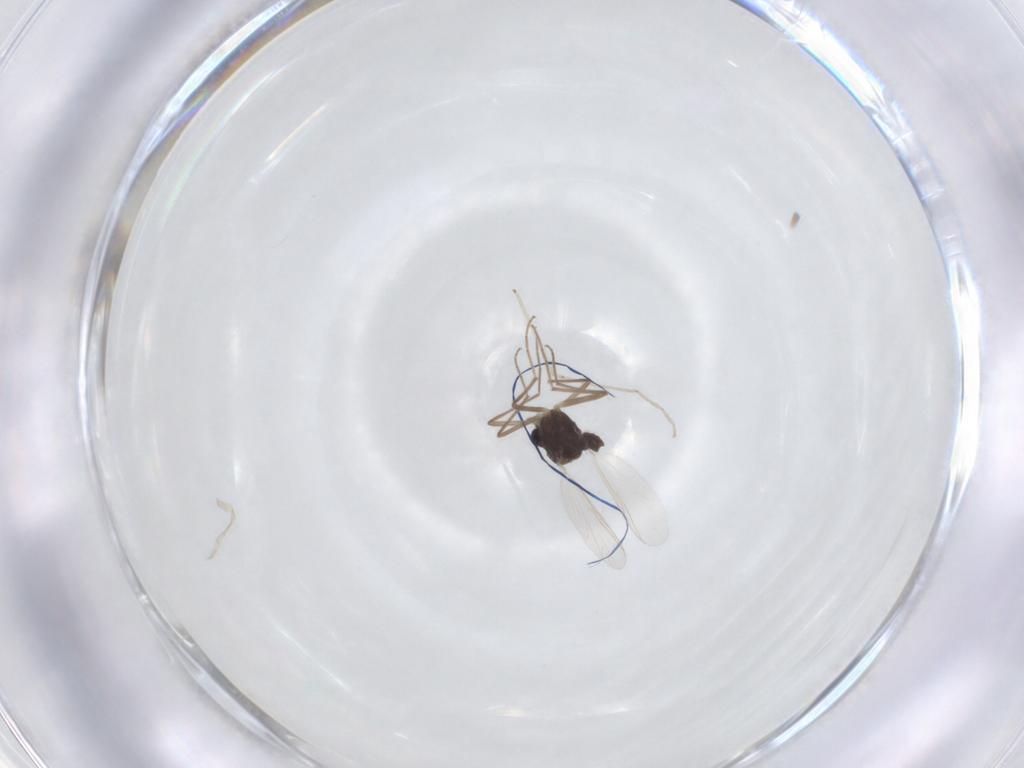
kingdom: Animalia
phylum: Arthropoda
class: Insecta
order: Diptera
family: Chironomidae
